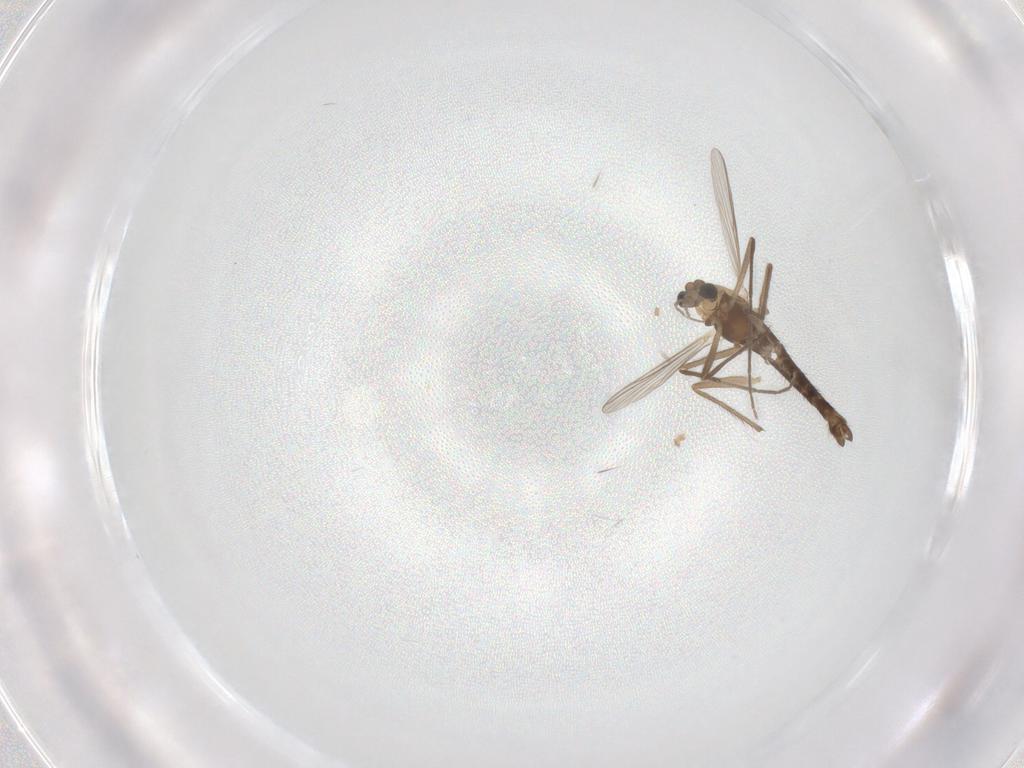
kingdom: Animalia
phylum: Arthropoda
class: Insecta
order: Diptera
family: Chironomidae
